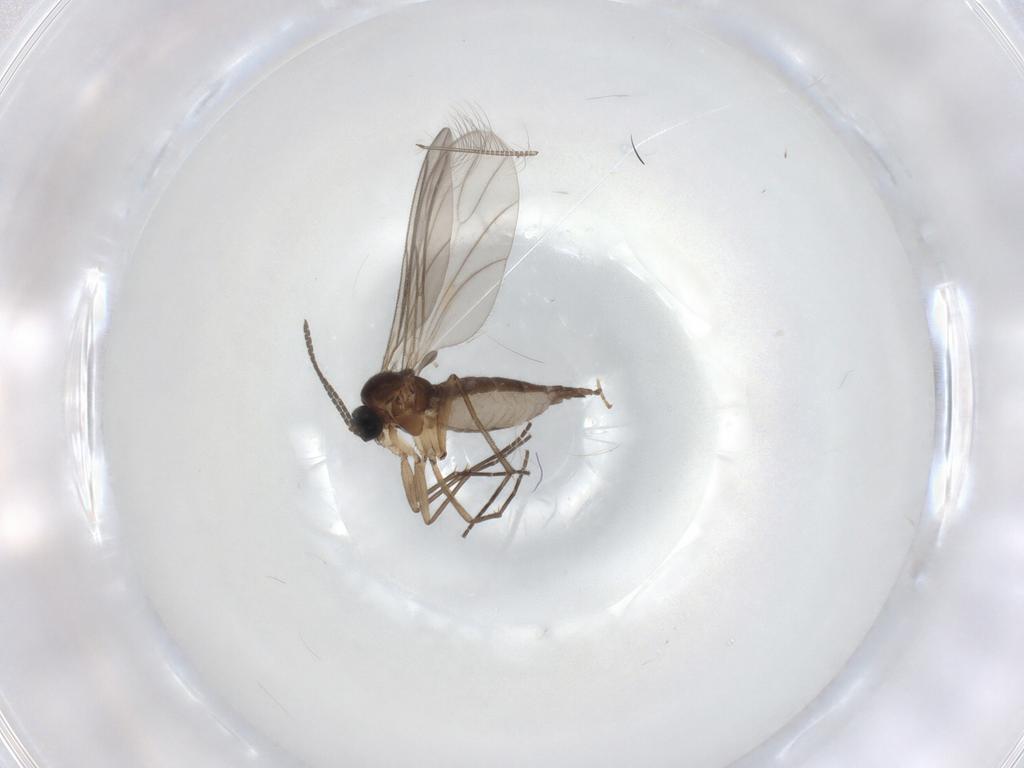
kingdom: Animalia
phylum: Arthropoda
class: Insecta
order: Diptera
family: Sciaridae
